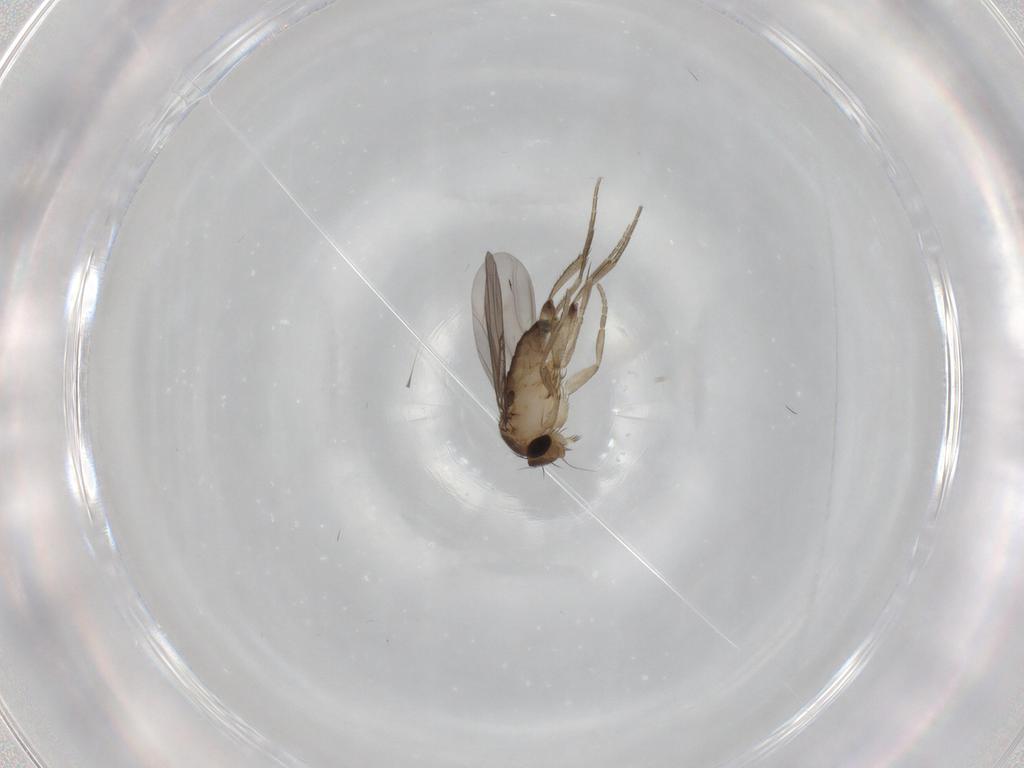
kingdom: Animalia
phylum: Arthropoda
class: Insecta
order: Diptera
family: Phoridae
